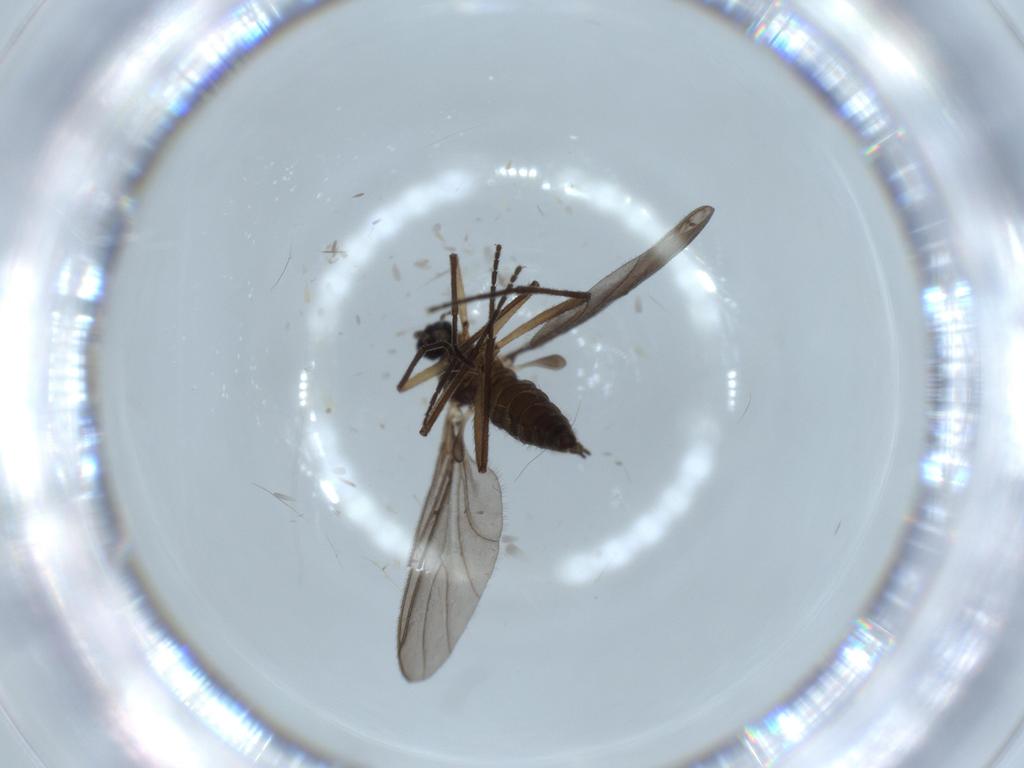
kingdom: Animalia
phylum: Arthropoda
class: Insecta
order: Diptera
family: Sciaridae
